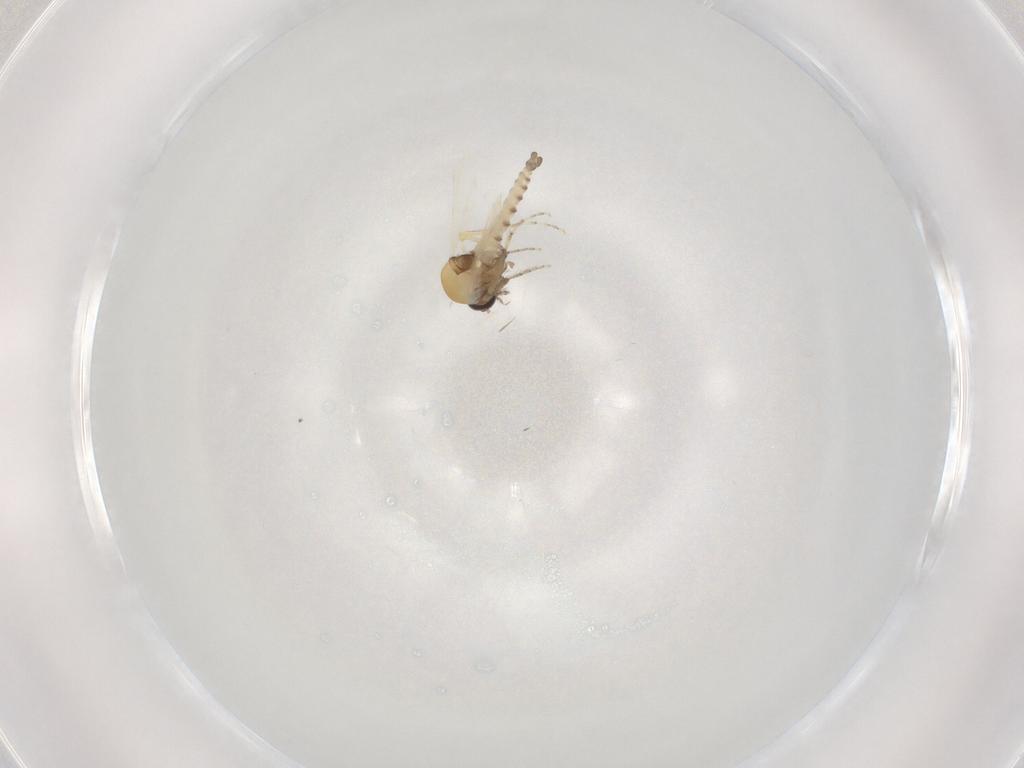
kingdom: Animalia
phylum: Arthropoda
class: Insecta
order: Diptera
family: Ceratopogonidae
